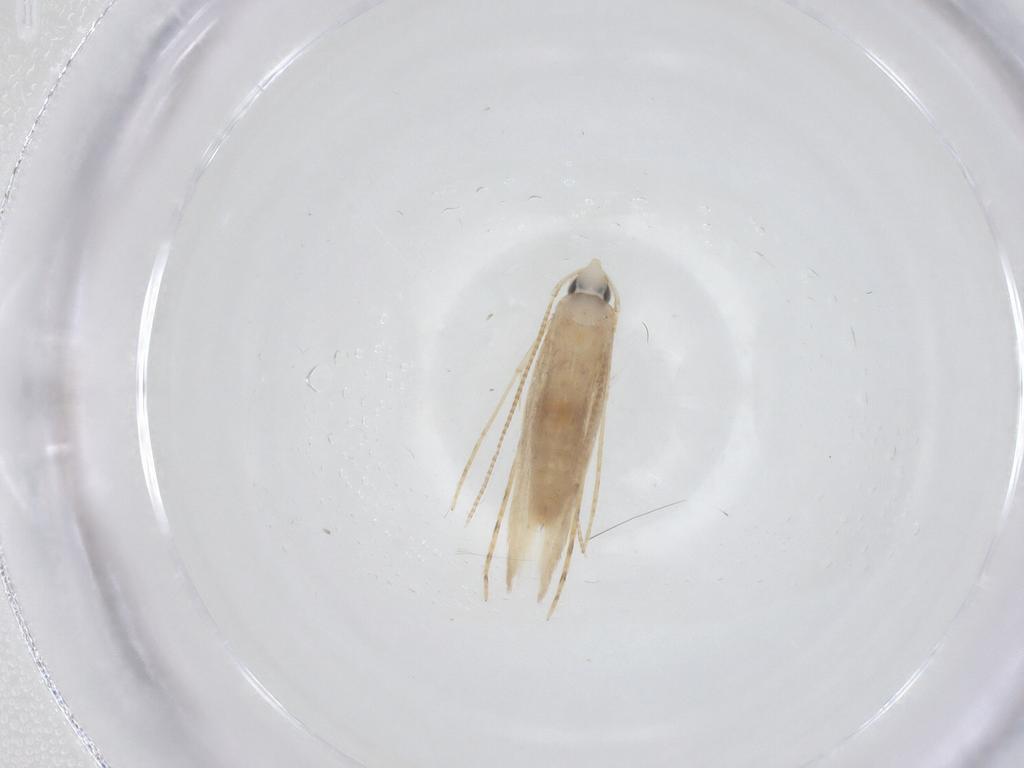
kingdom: Animalia
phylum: Arthropoda
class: Insecta
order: Lepidoptera
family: Tineidae
